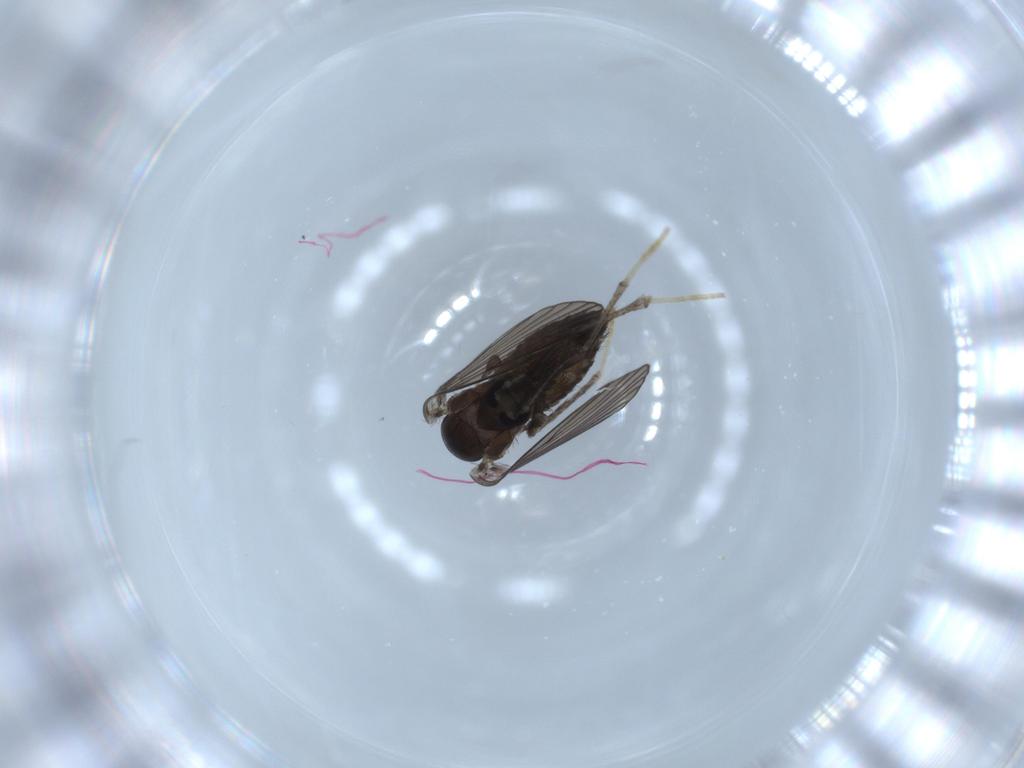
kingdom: Animalia
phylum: Arthropoda
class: Insecta
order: Diptera
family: Psychodidae
